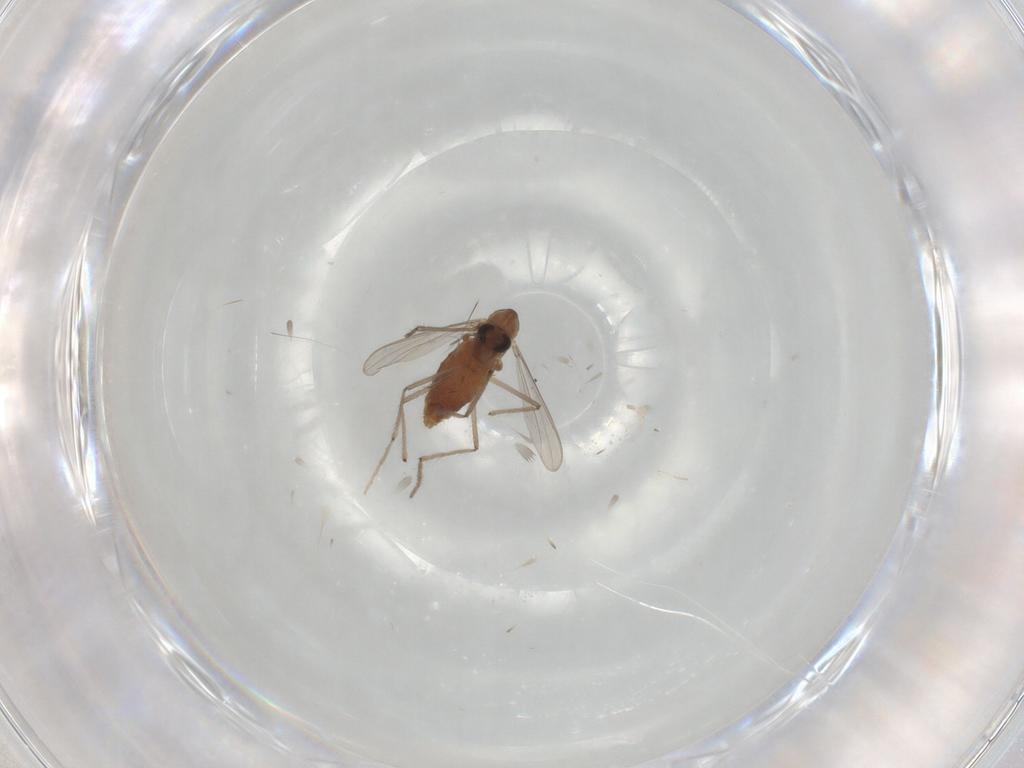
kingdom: Animalia
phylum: Arthropoda
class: Insecta
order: Diptera
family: Chironomidae
